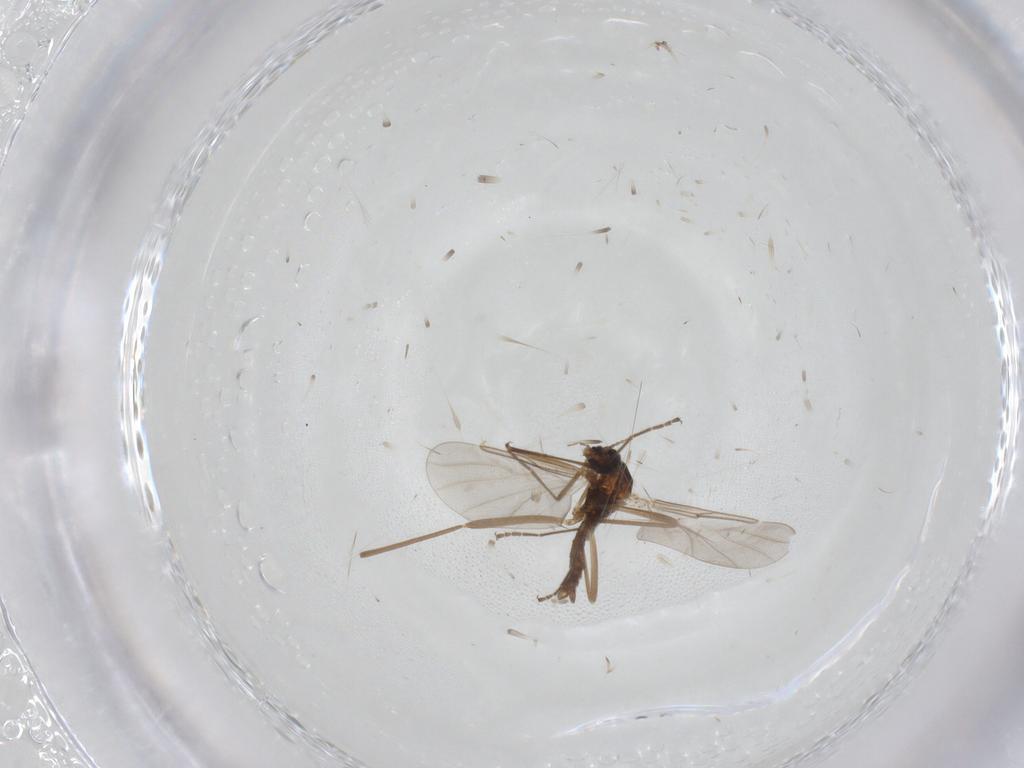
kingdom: Animalia
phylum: Arthropoda
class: Insecta
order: Diptera
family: Cecidomyiidae
